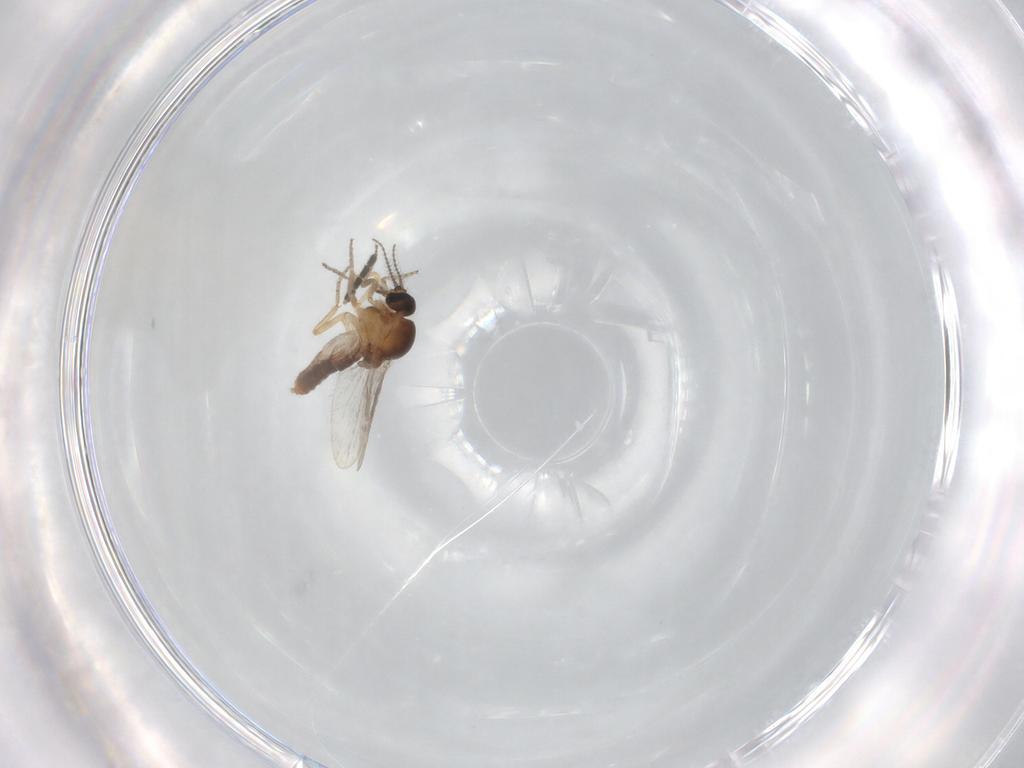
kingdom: Animalia
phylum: Arthropoda
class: Insecta
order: Diptera
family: Ceratopogonidae
